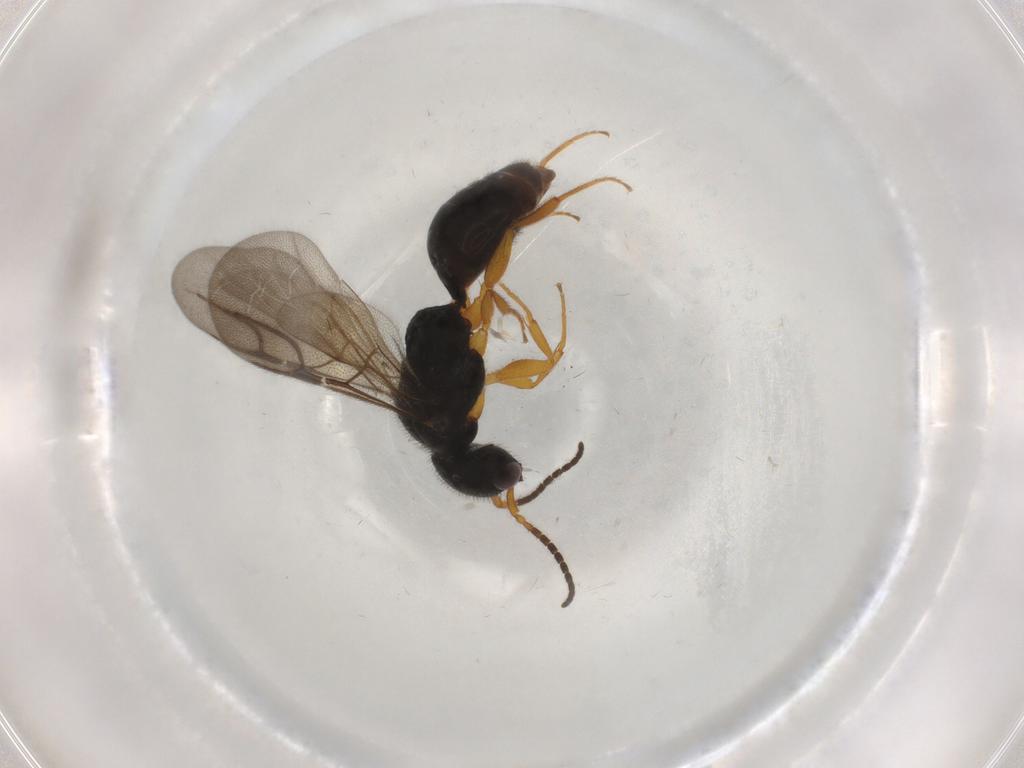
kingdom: Animalia
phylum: Arthropoda
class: Insecta
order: Hymenoptera
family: Bethylidae
